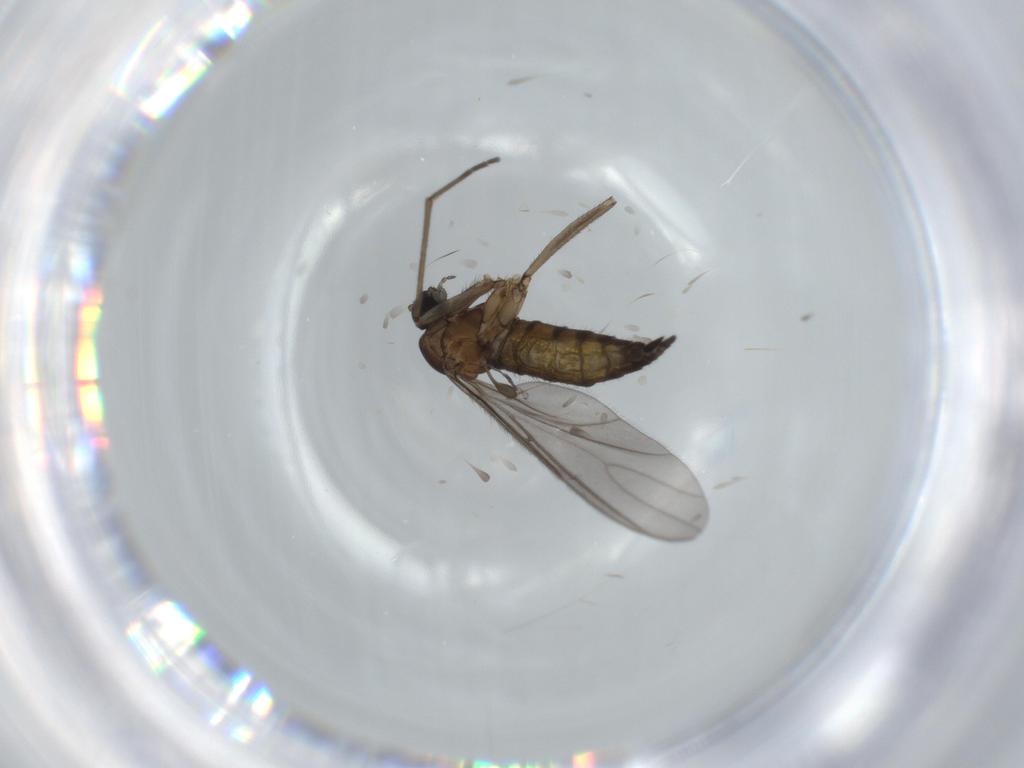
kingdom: Animalia
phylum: Arthropoda
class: Insecta
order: Diptera
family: Sciaridae
